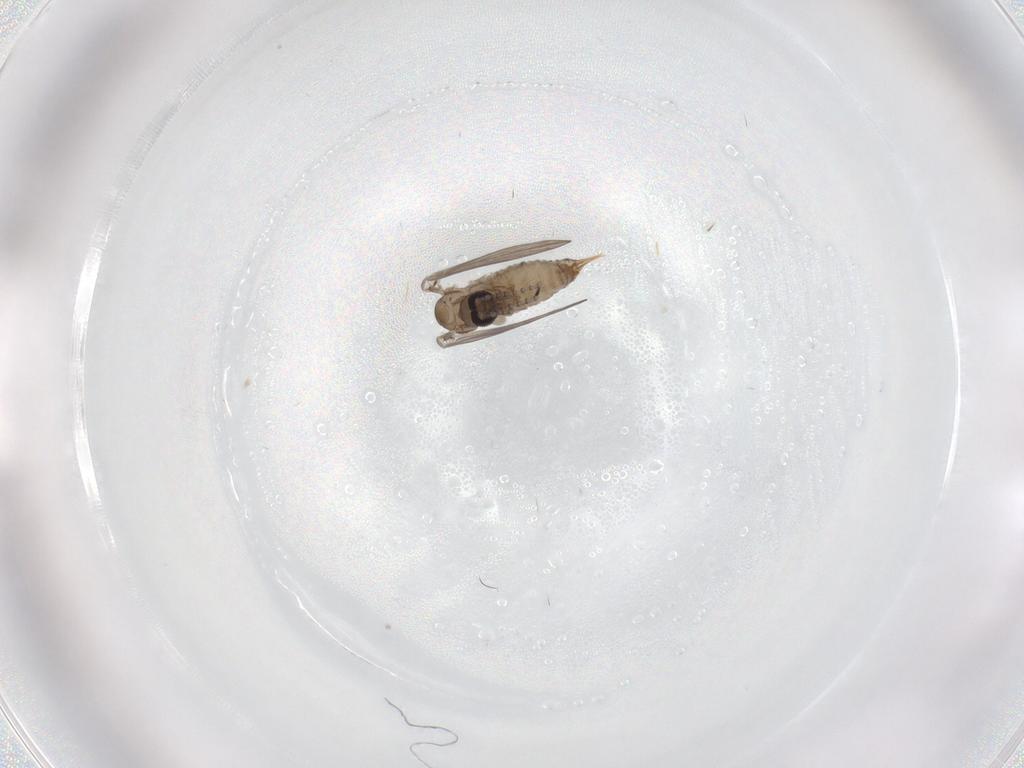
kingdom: Animalia
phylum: Arthropoda
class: Insecta
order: Diptera
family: Psychodidae
